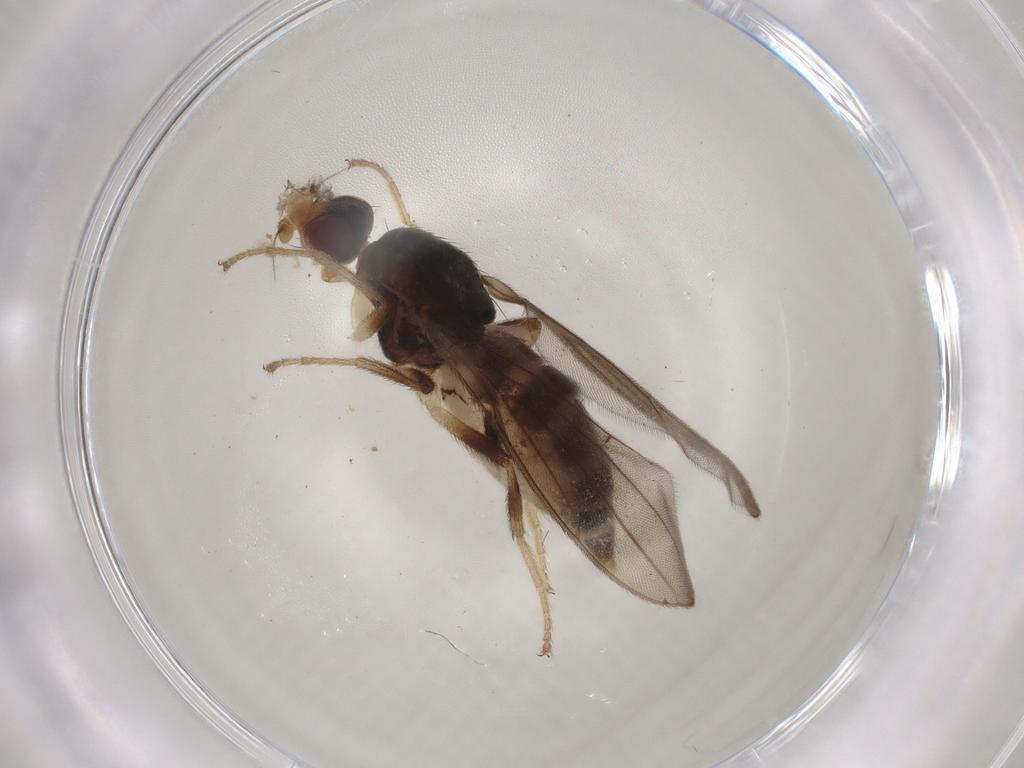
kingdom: Animalia
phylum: Arthropoda
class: Insecta
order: Diptera
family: Chloropidae
